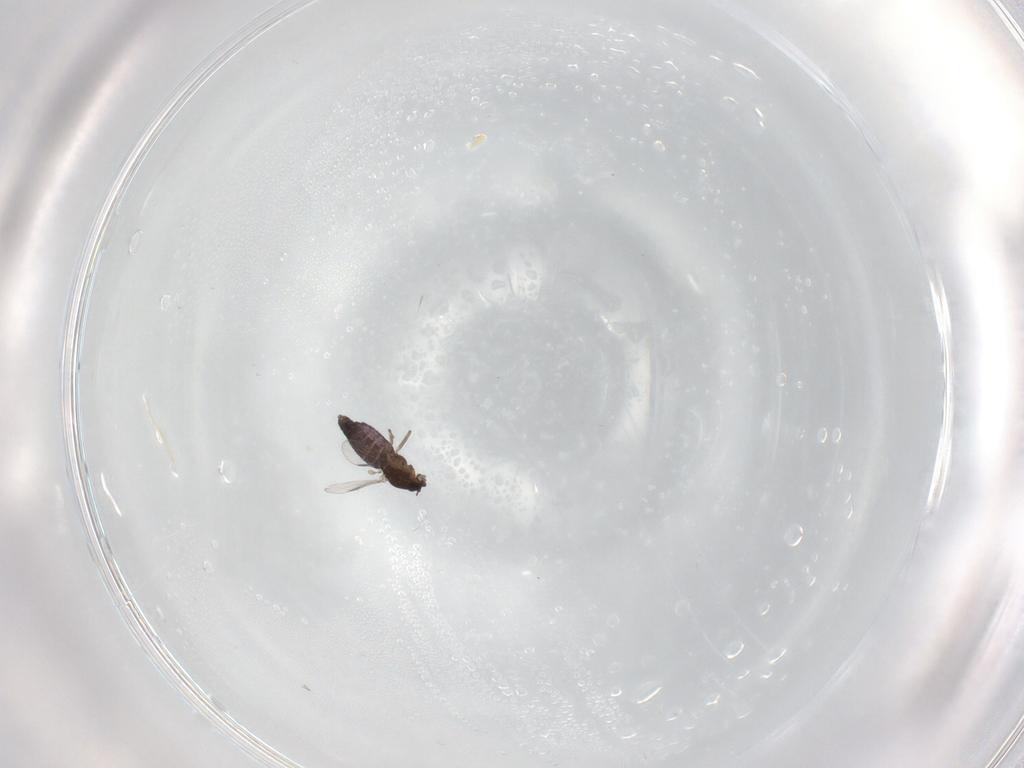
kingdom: Animalia
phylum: Arthropoda
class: Insecta
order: Diptera
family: Chironomidae
